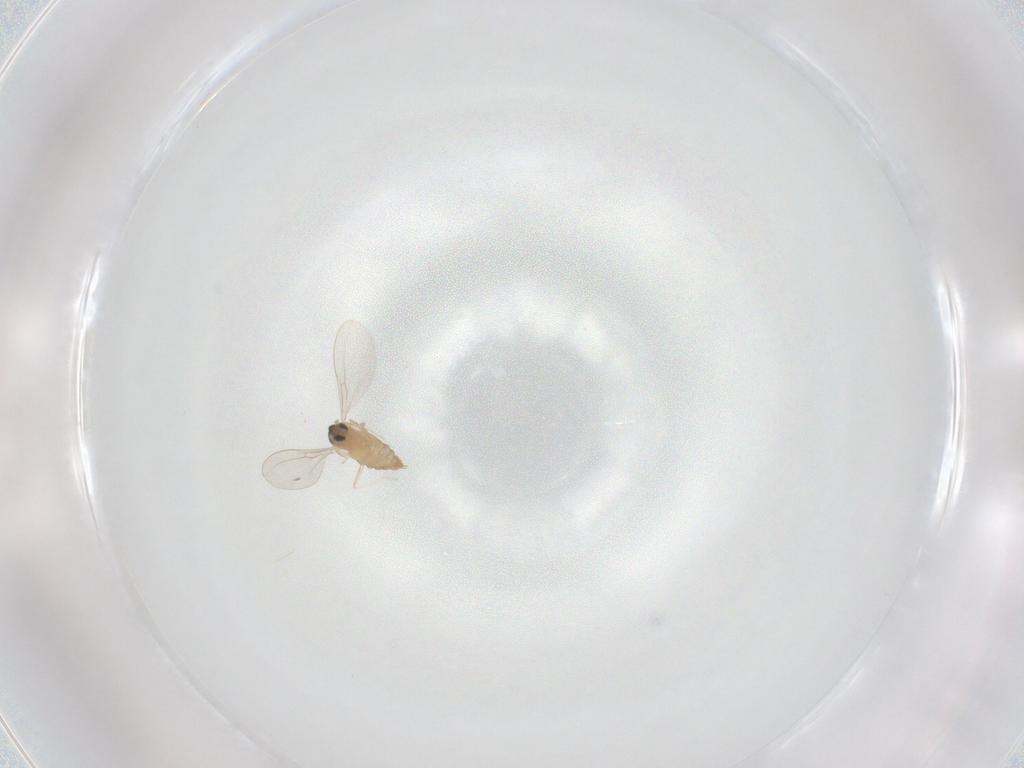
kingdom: Animalia
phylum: Arthropoda
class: Insecta
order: Diptera
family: Cecidomyiidae
